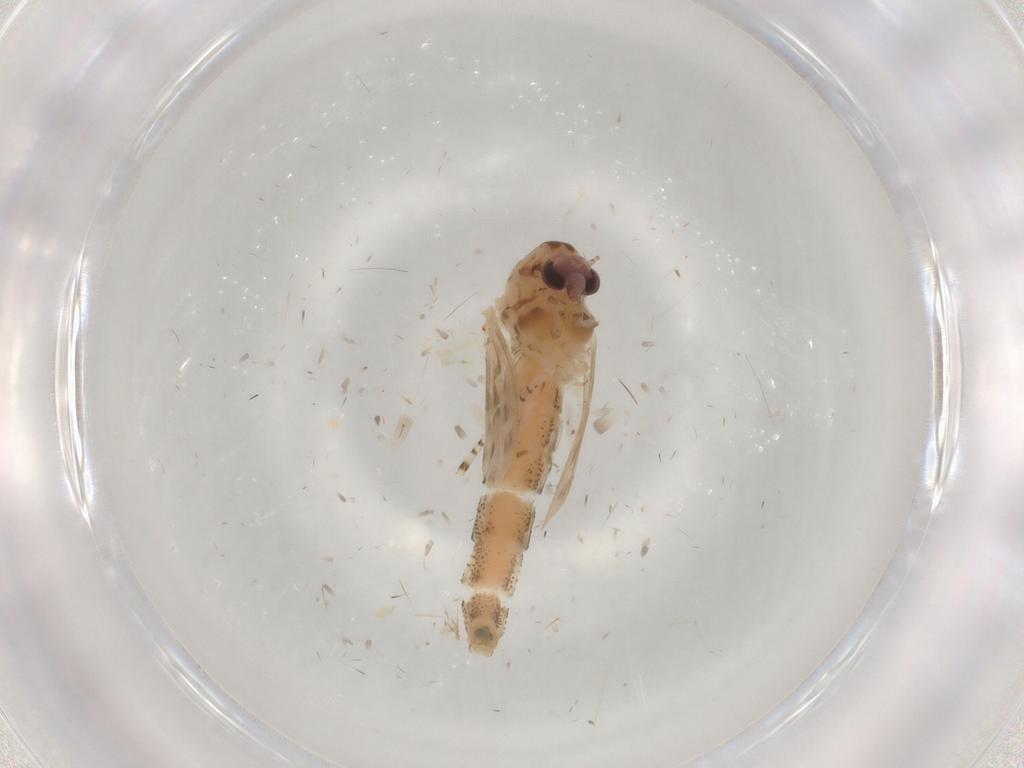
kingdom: Animalia
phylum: Arthropoda
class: Insecta
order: Diptera
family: Chaoboridae
